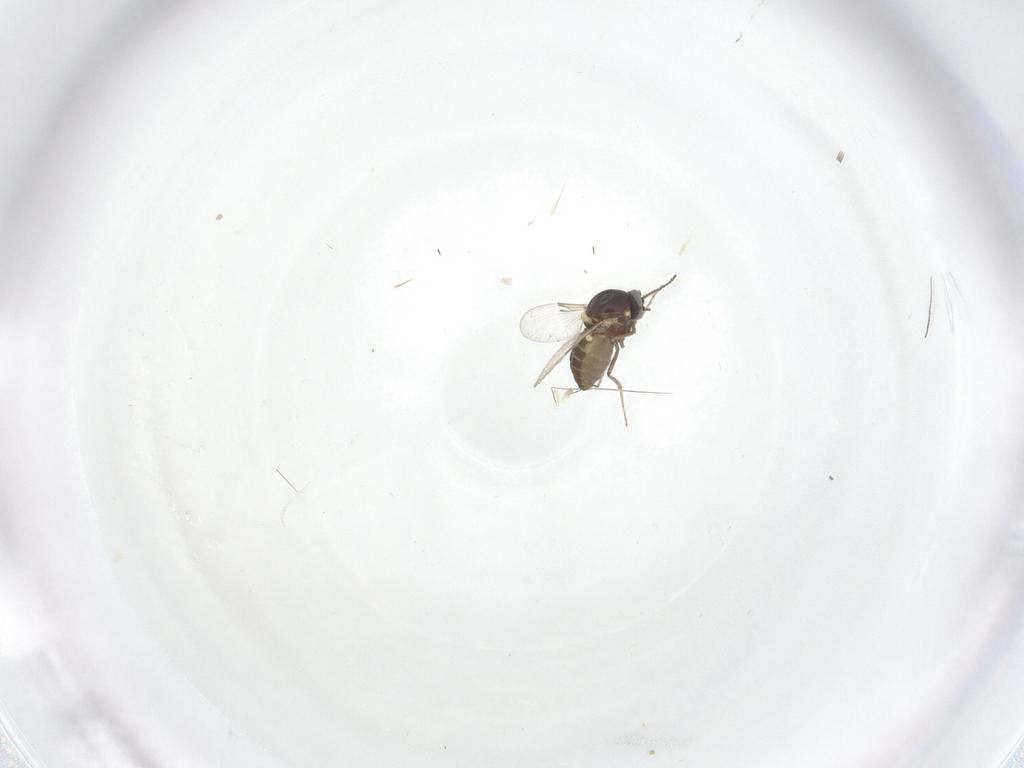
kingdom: Animalia
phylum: Arthropoda
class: Insecta
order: Diptera
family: Ceratopogonidae
